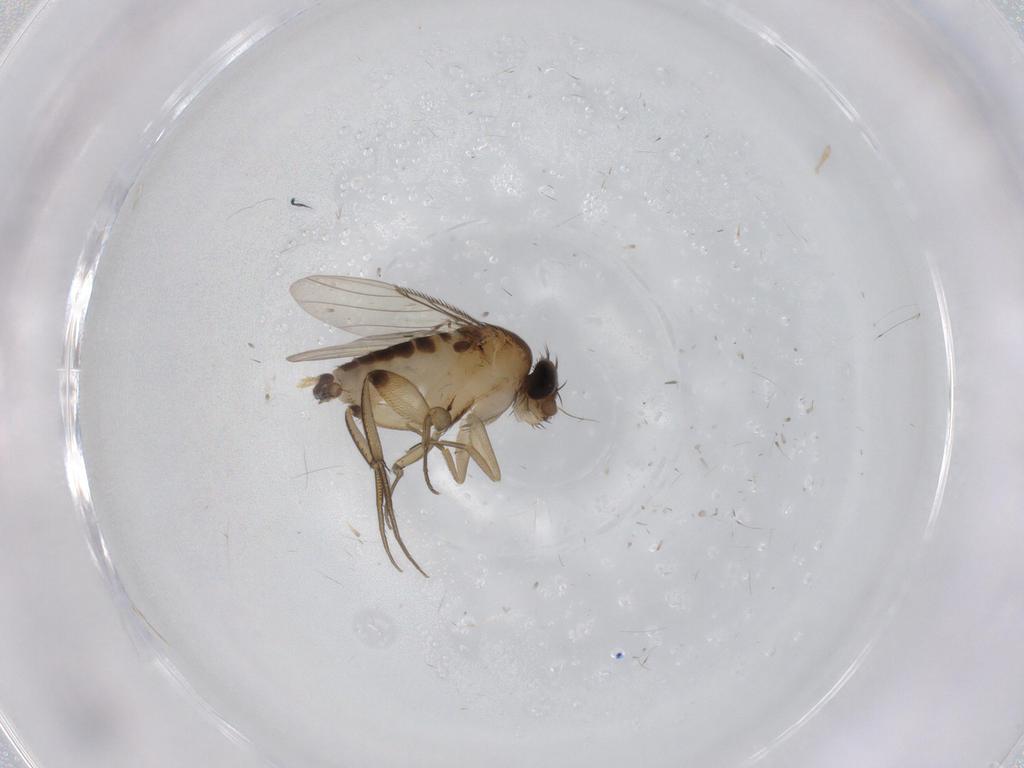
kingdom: Animalia
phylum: Arthropoda
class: Insecta
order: Diptera
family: Phoridae
